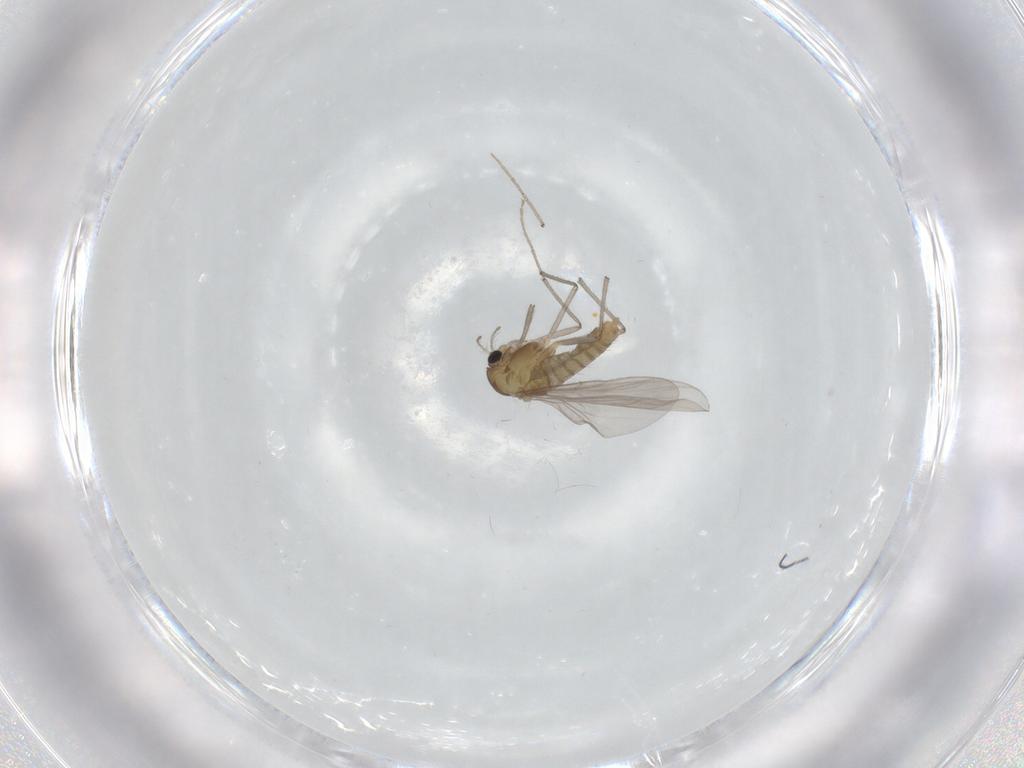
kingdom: Animalia
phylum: Arthropoda
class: Insecta
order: Diptera
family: Chironomidae
